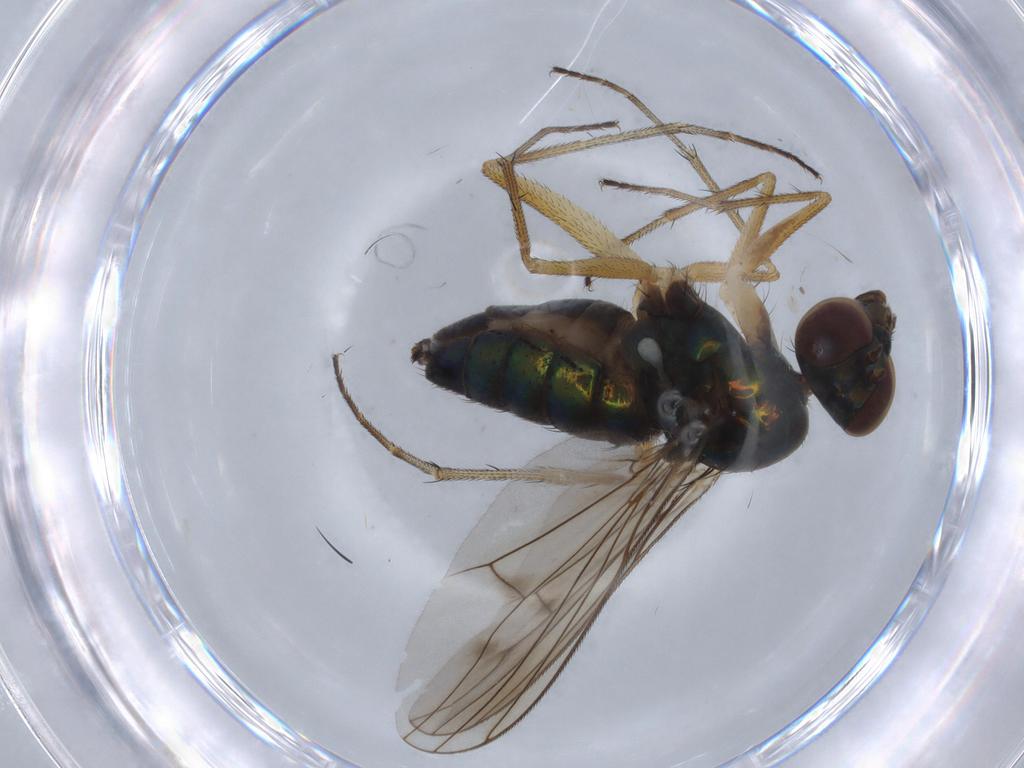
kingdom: Animalia
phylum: Arthropoda
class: Insecta
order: Diptera
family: Dolichopodidae
